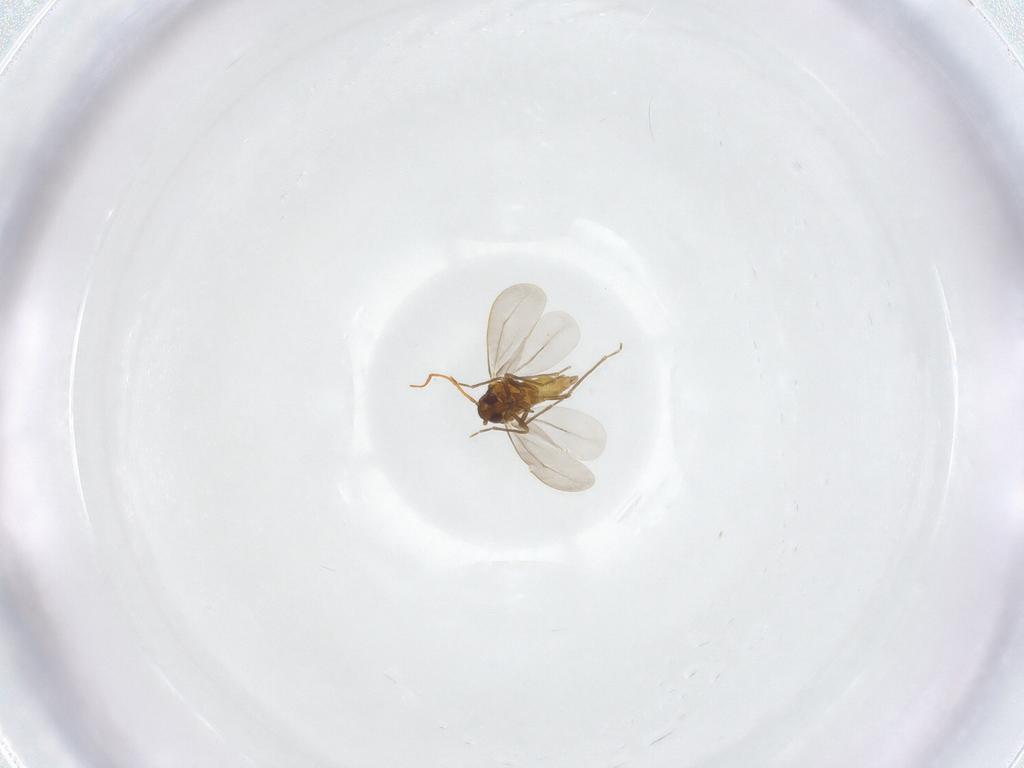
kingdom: Animalia
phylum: Arthropoda
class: Insecta
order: Hemiptera
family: Aleyrodidae
